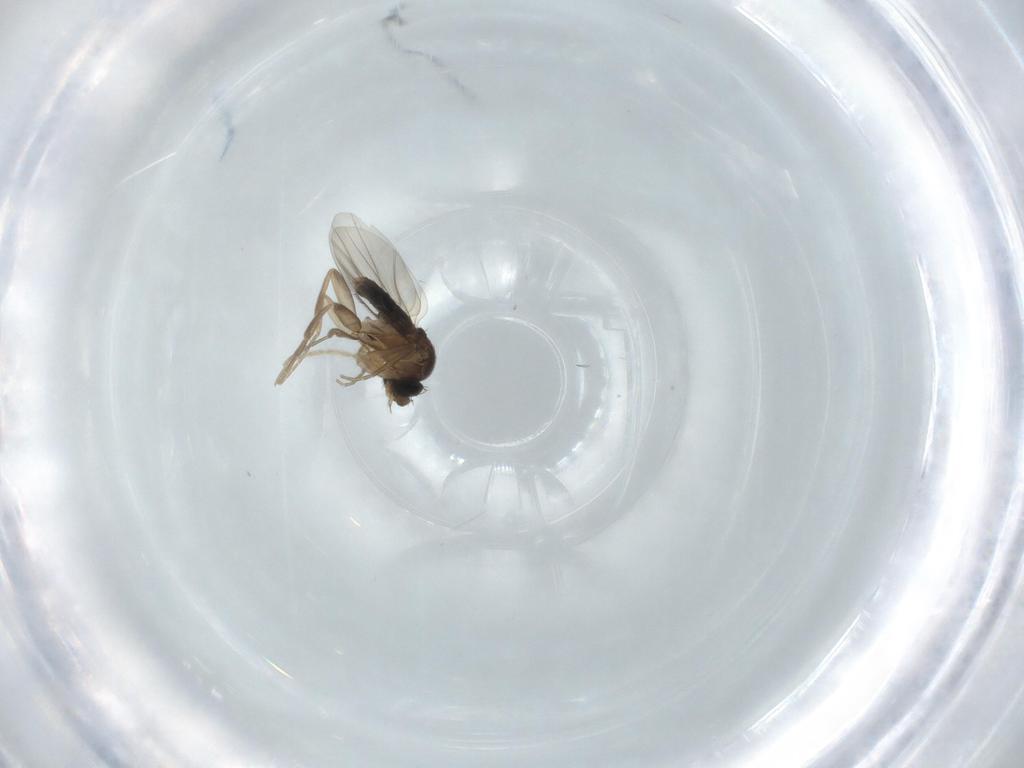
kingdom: Animalia
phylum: Arthropoda
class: Insecta
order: Diptera
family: Phoridae
